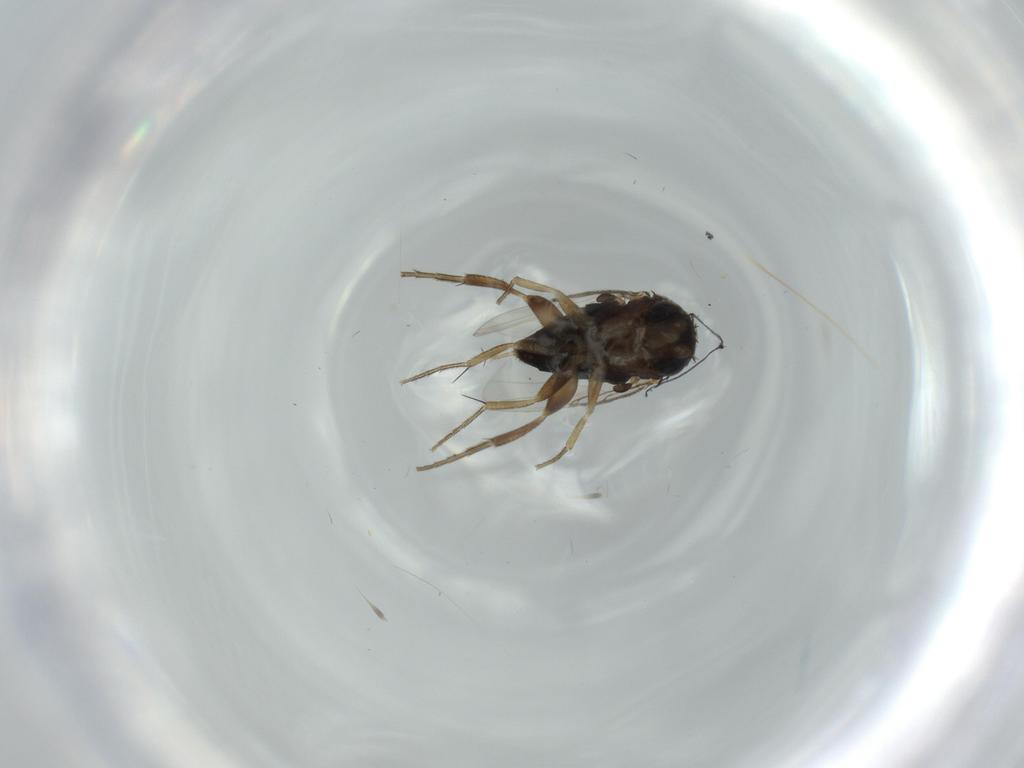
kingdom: Animalia
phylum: Arthropoda
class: Insecta
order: Diptera
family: Phoridae
